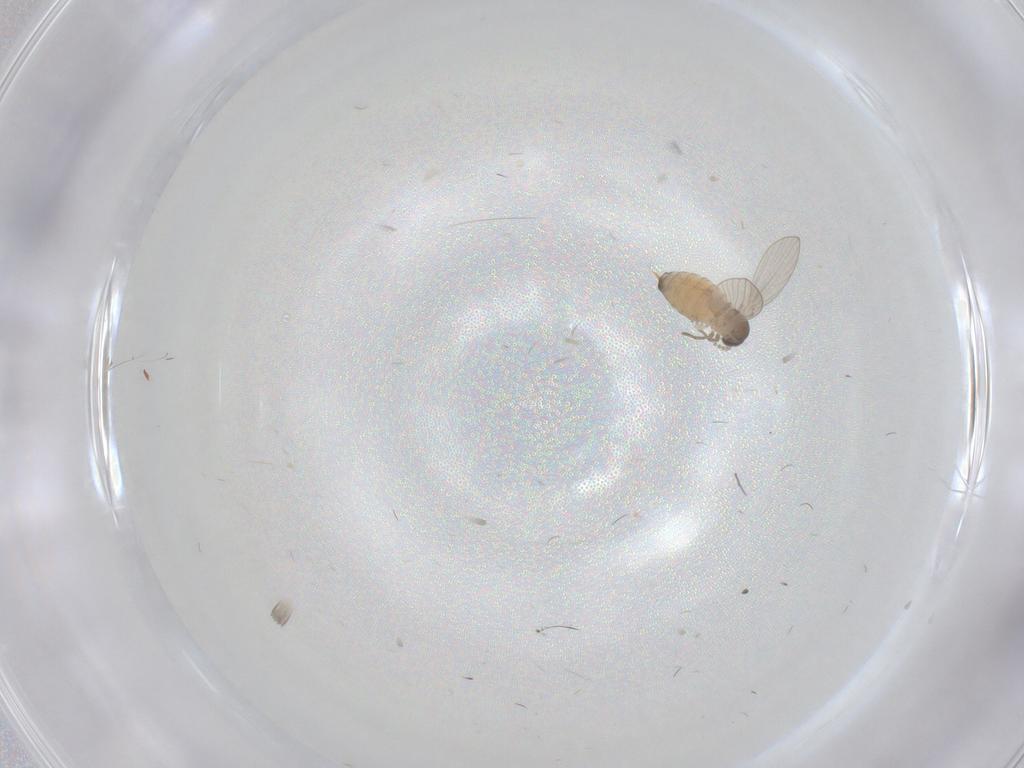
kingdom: Animalia
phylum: Arthropoda
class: Insecta
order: Diptera
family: Psychodidae
